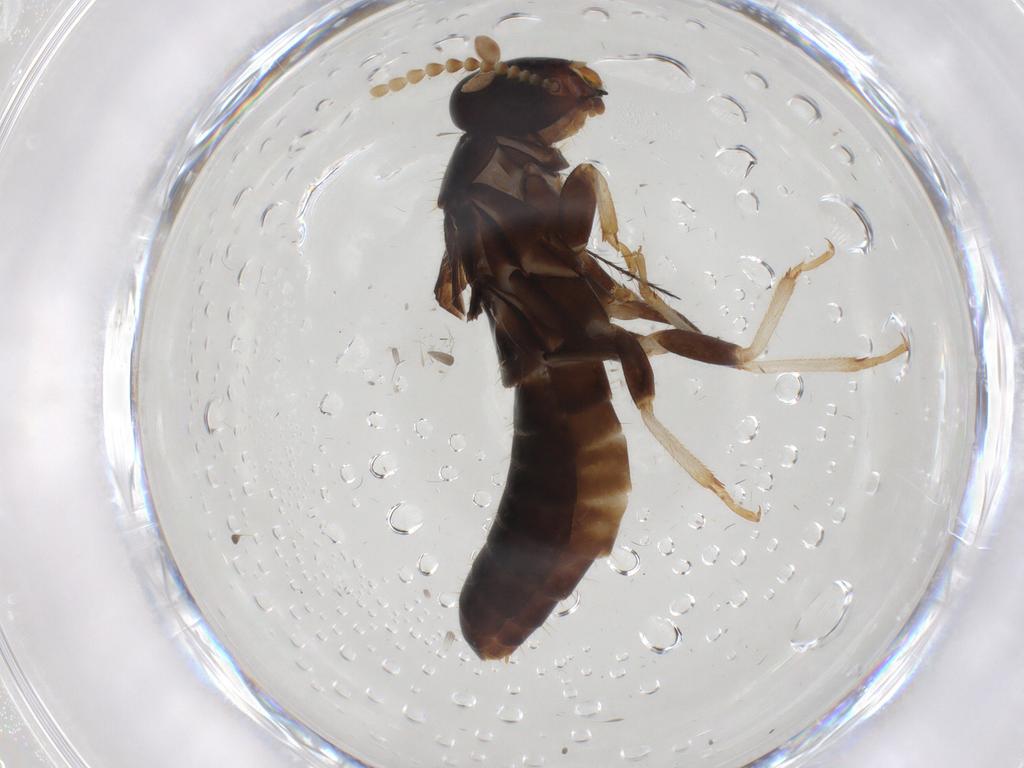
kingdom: Animalia
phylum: Arthropoda
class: Insecta
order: Blattodea
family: Kalotermitidae
